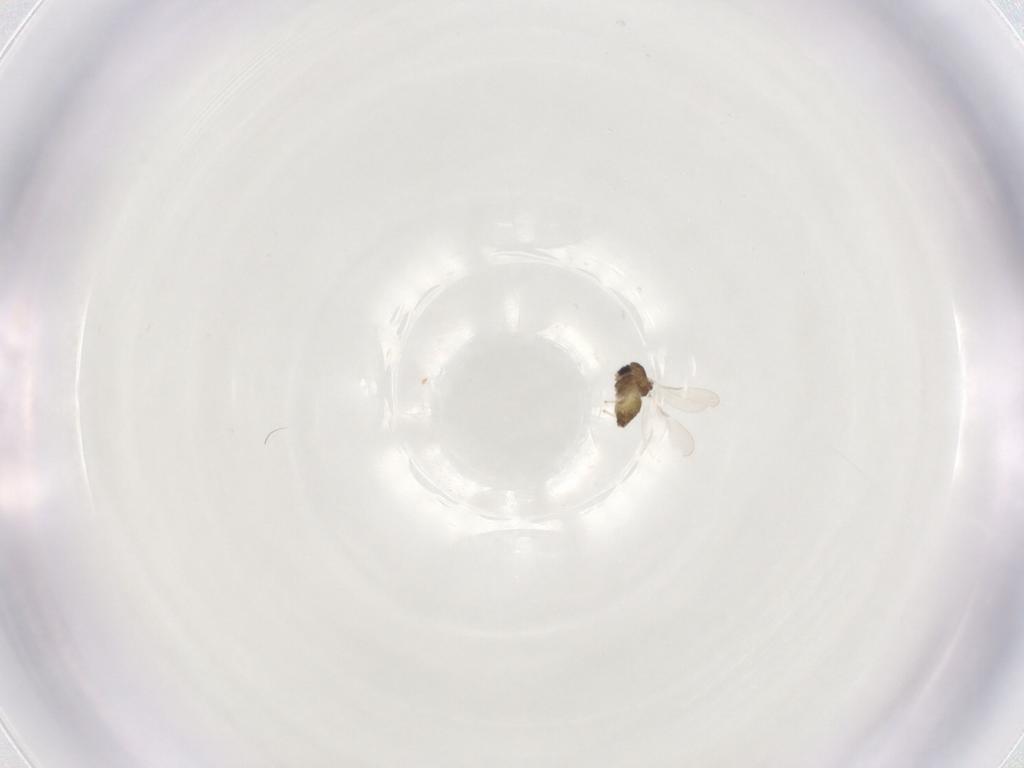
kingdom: Animalia
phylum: Arthropoda
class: Insecta
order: Diptera
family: Chironomidae
